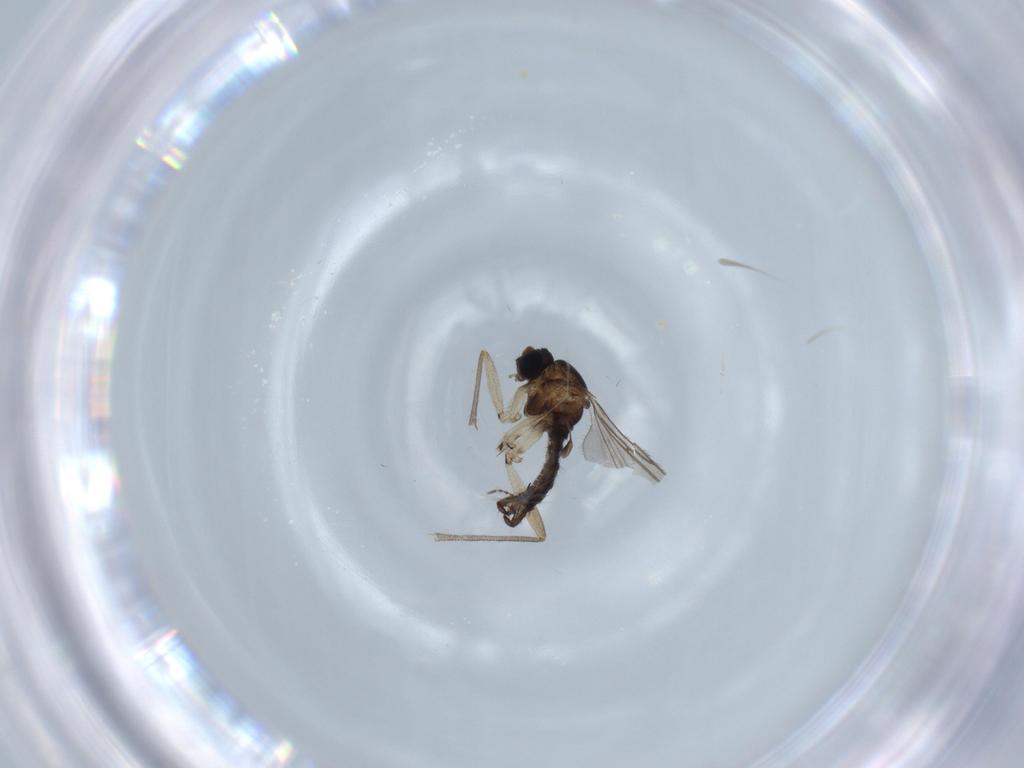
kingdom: Animalia
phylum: Arthropoda
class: Insecta
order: Diptera
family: Sciaridae
